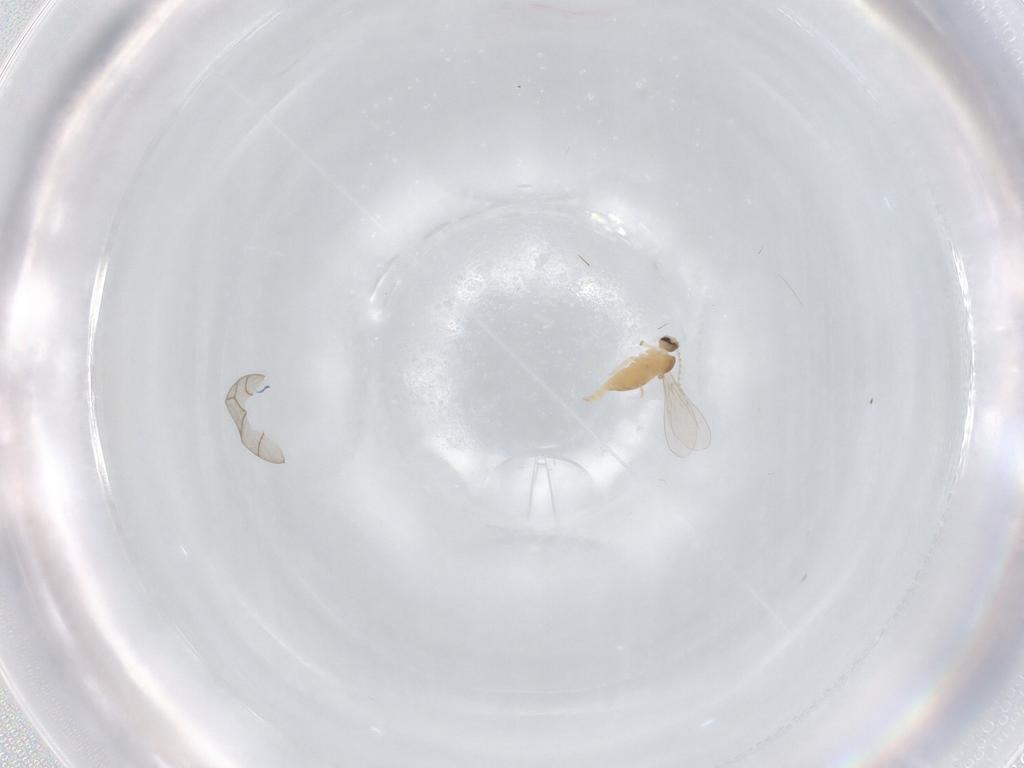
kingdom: Animalia
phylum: Arthropoda
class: Insecta
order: Diptera
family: Cecidomyiidae
